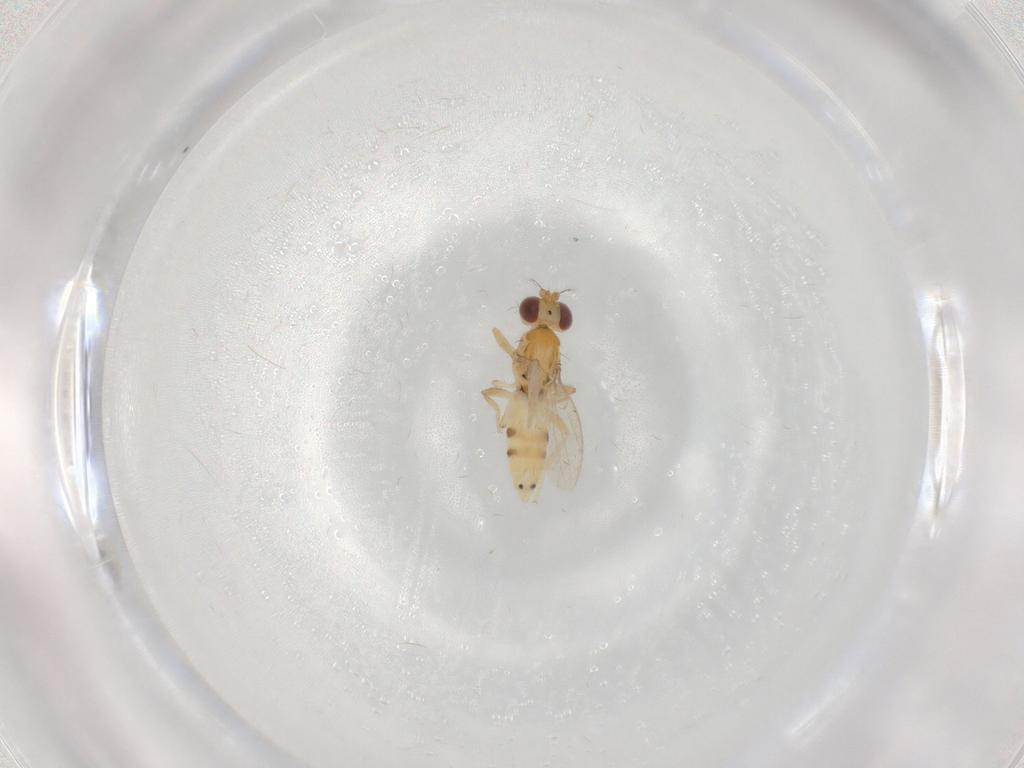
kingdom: Animalia
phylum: Arthropoda
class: Insecta
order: Diptera
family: Periscelididae
